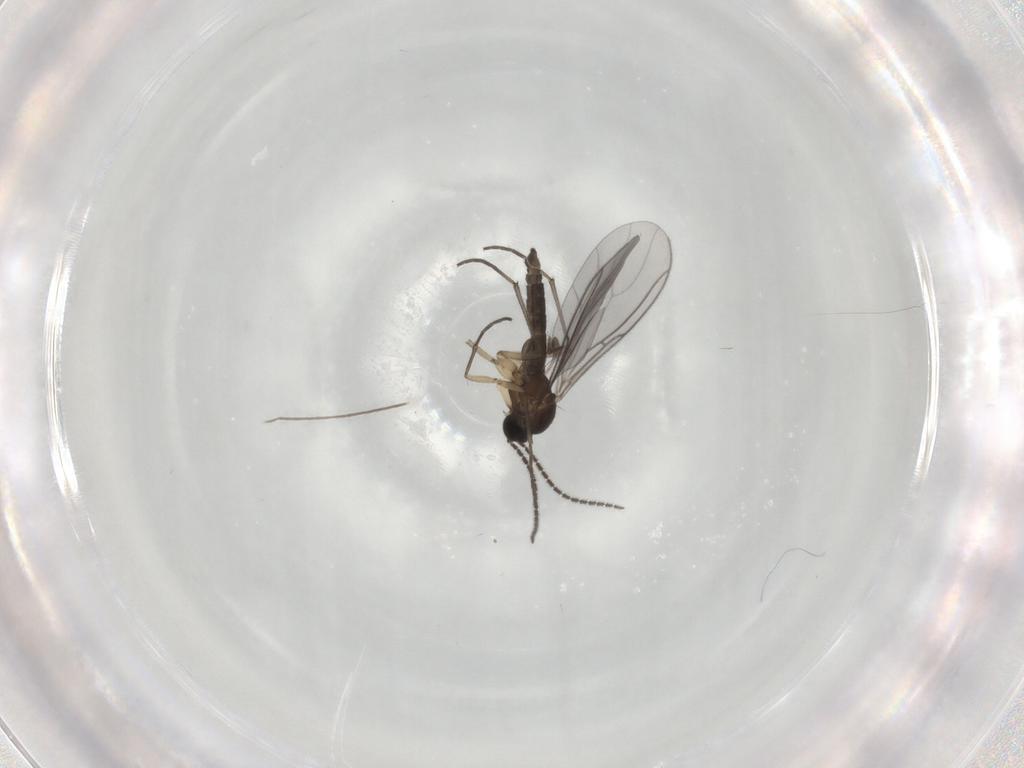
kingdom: Animalia
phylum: Arthropoda
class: Insecta
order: Diptera
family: Sciaridae
